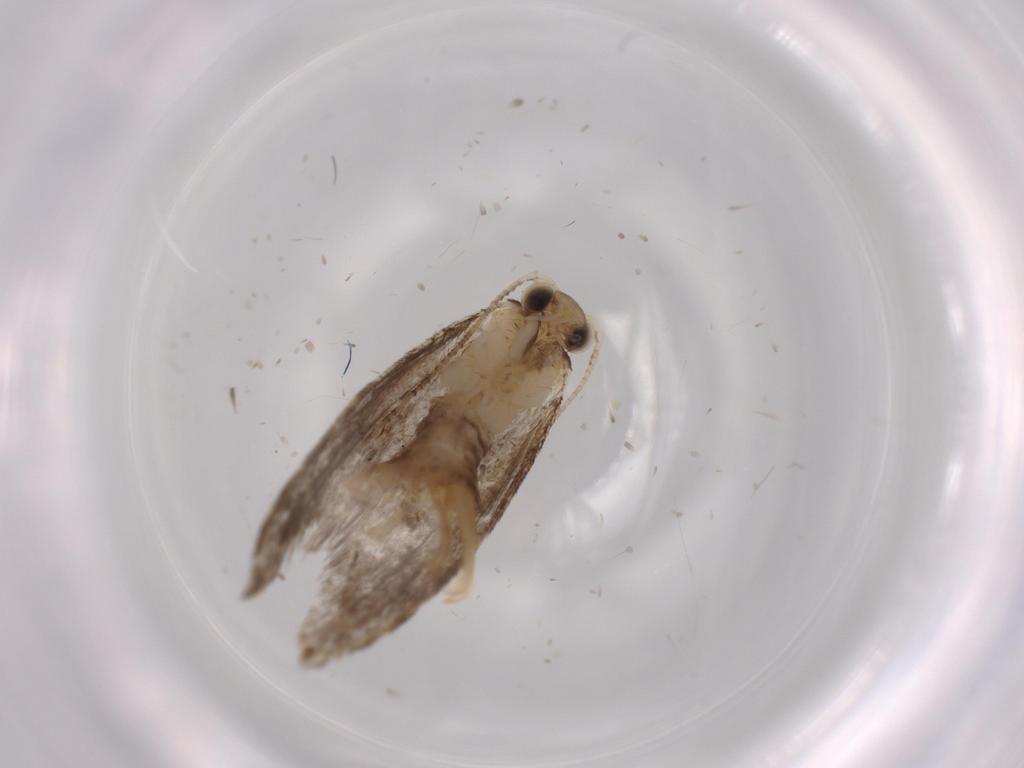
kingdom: Animalia
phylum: Arthropoda
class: Insecta
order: Lepidoptera
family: Tineidae
